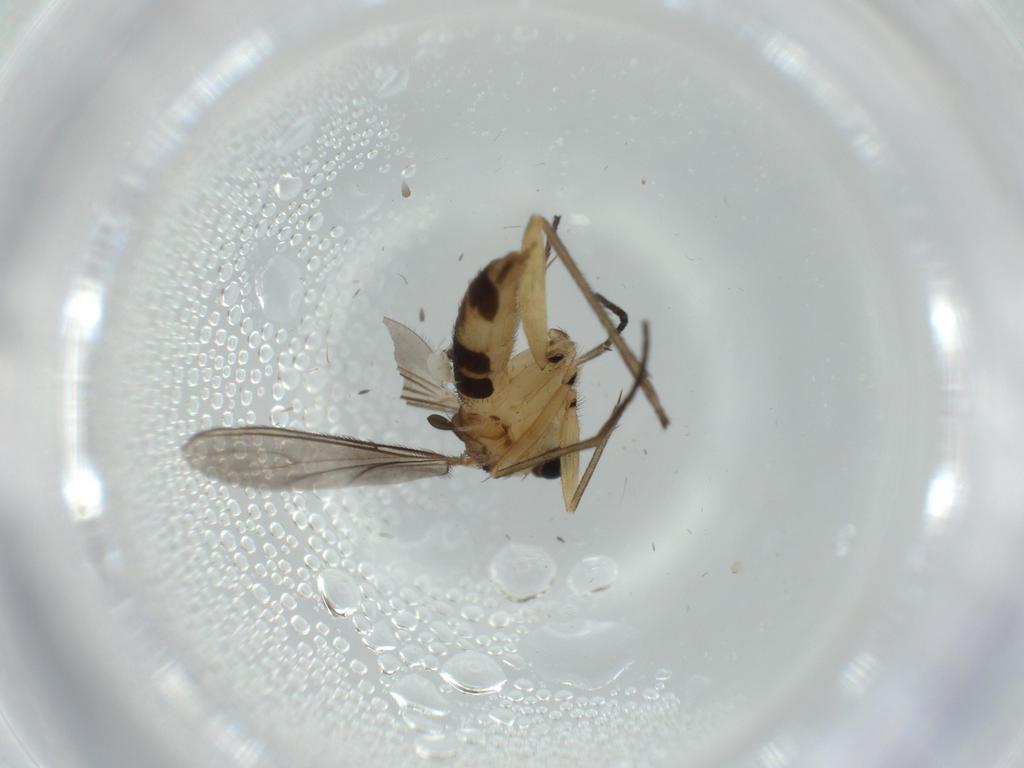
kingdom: Animalia
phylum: Arthropoda
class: Insecta
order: Diptera
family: Sciaridae
